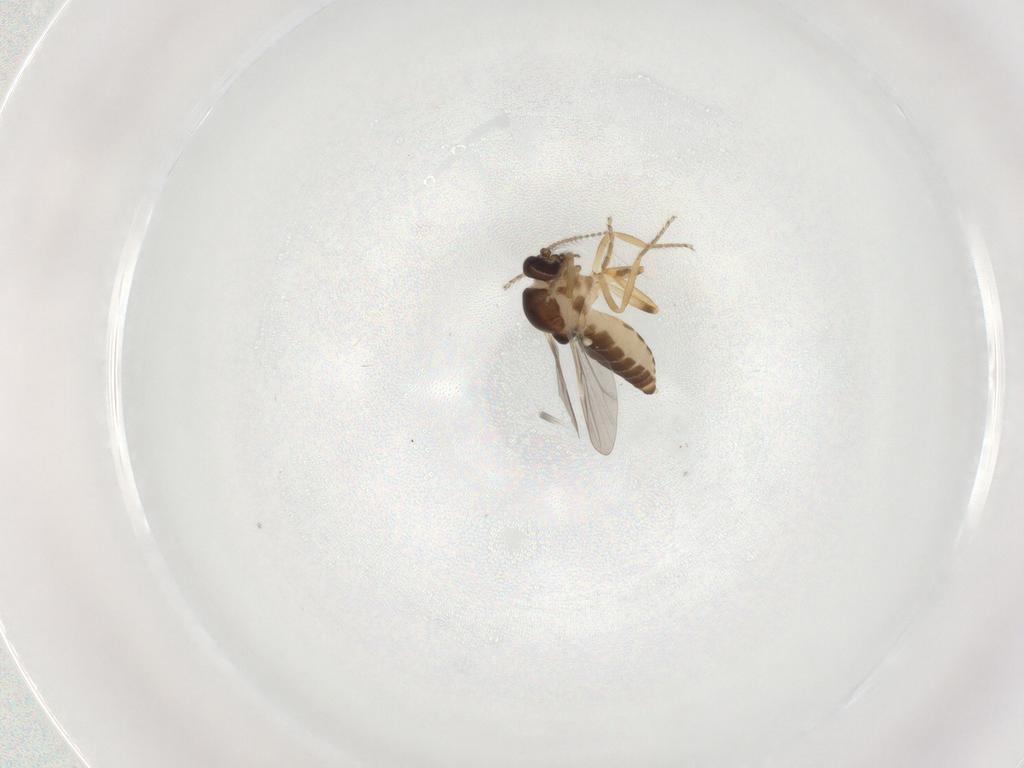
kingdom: Animalia
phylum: Arthropoda
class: Insecta
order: Diptera
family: Ceratopogonidae
